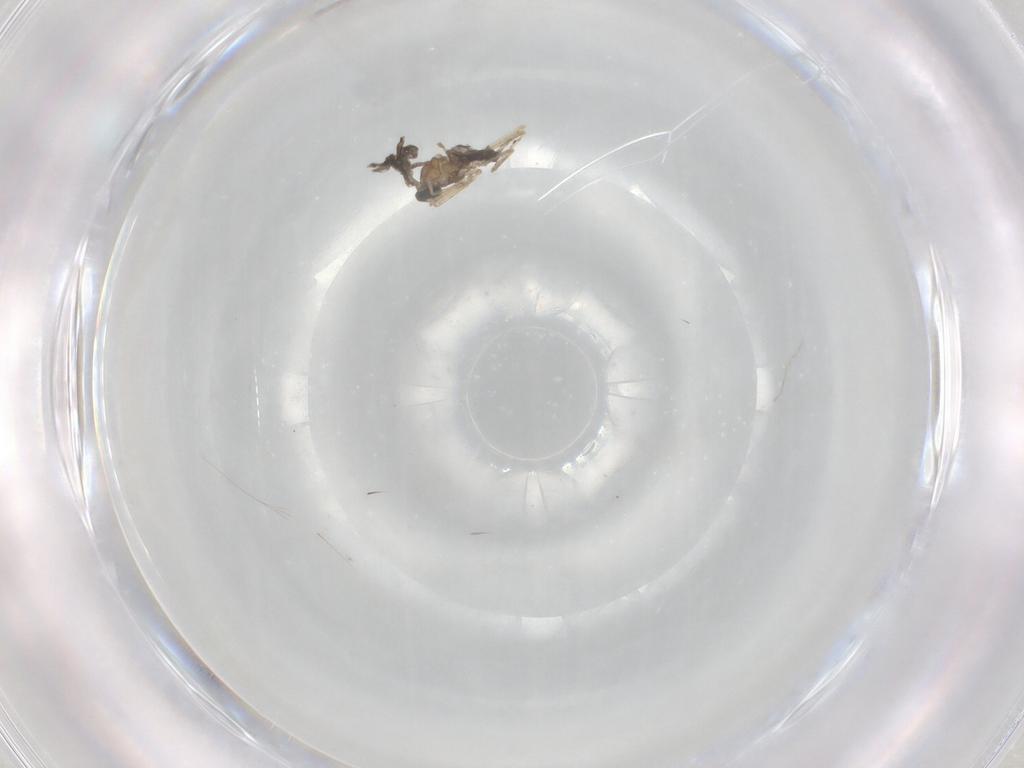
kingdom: Animalia
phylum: Arthropoda
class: Insecta
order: Diptera
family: Cecidomyiidae
